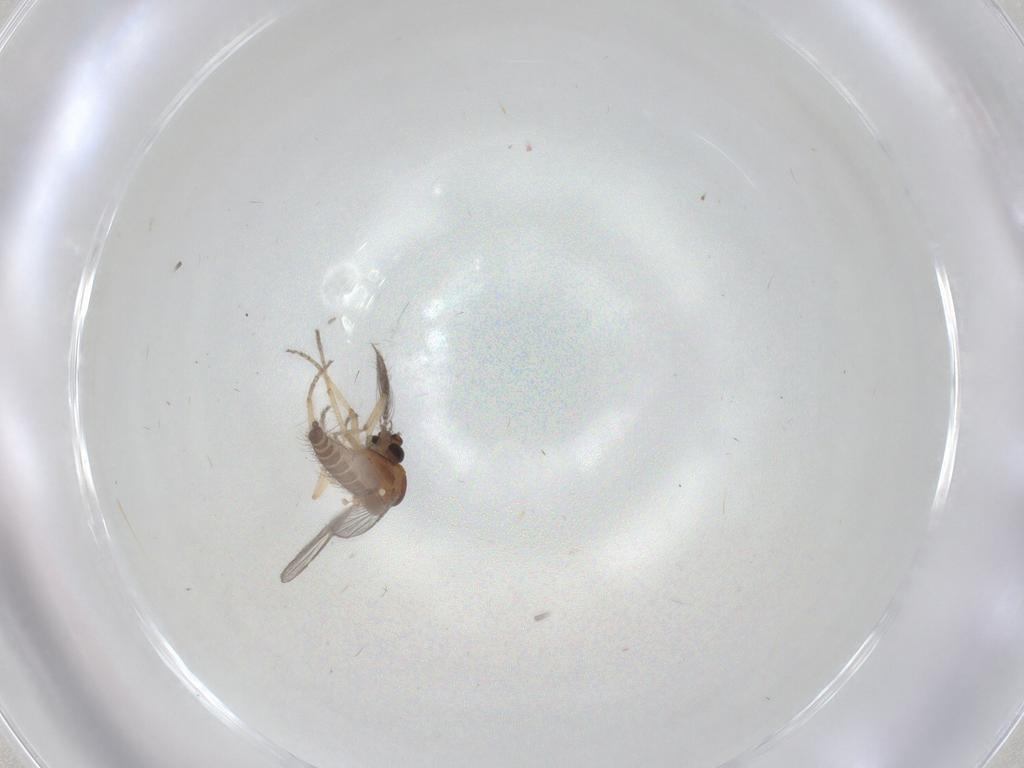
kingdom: Animalia
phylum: Arthropoda
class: Insecta
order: Diptera
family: Ceratopogonidae
